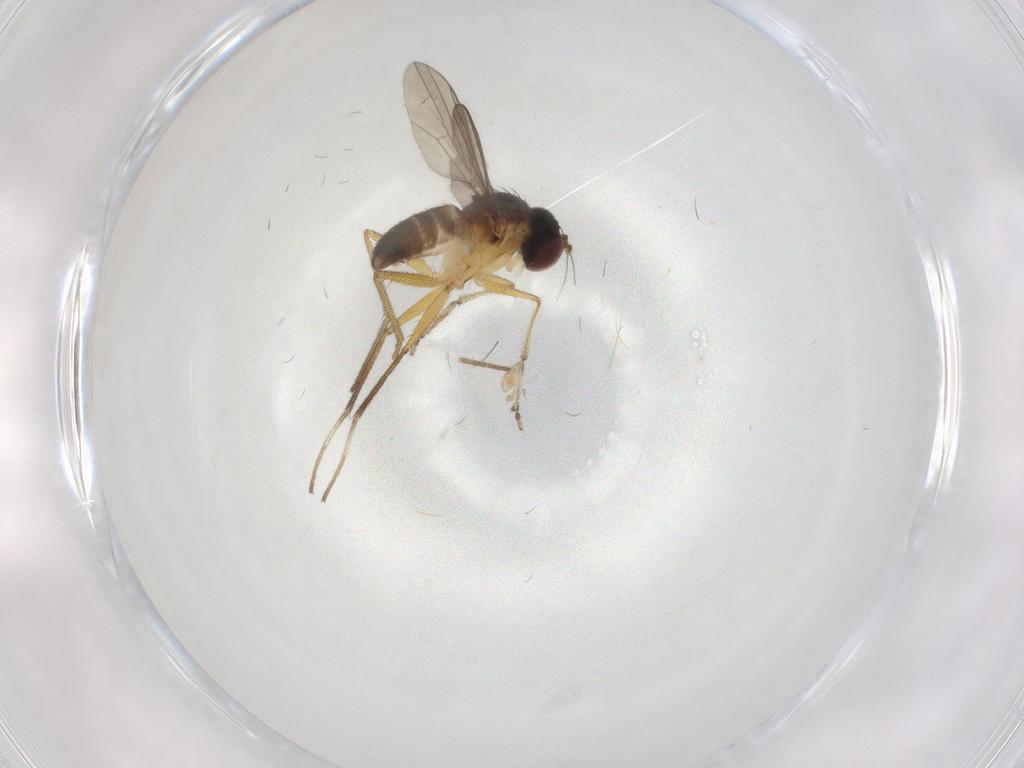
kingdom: Animalia
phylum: Arthropoda
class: Insecta
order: Diptera
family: Dolichopodidae
